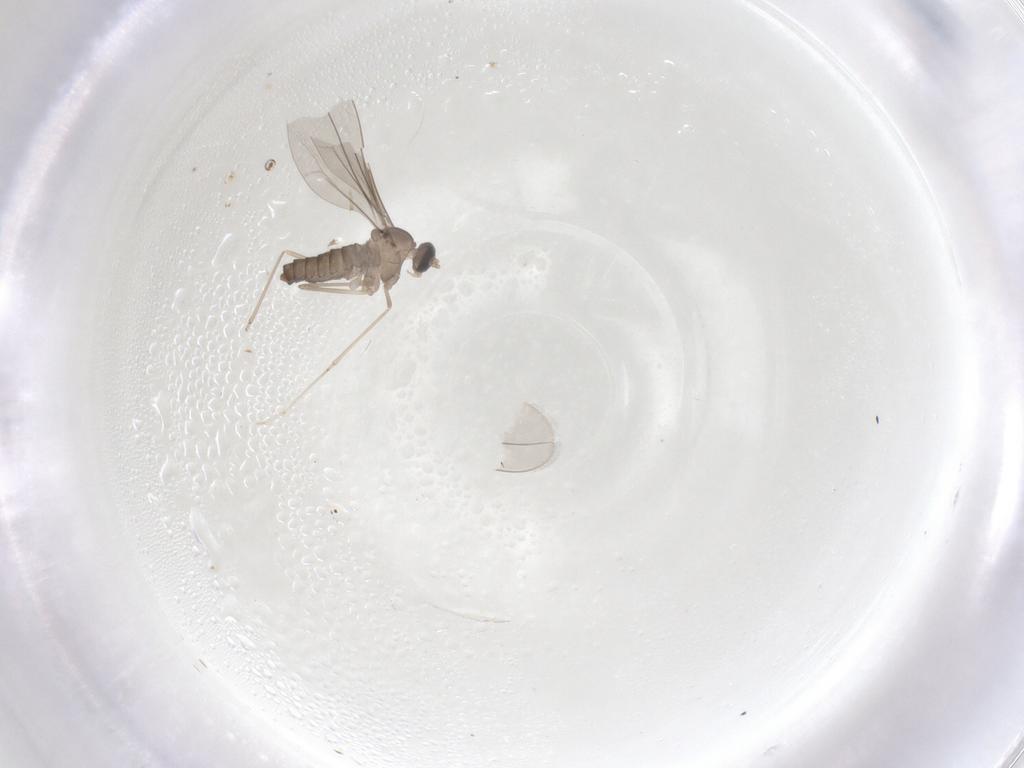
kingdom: Animalia
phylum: Arthropoda
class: Insecta
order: Diptera
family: Cecidomyiidae
